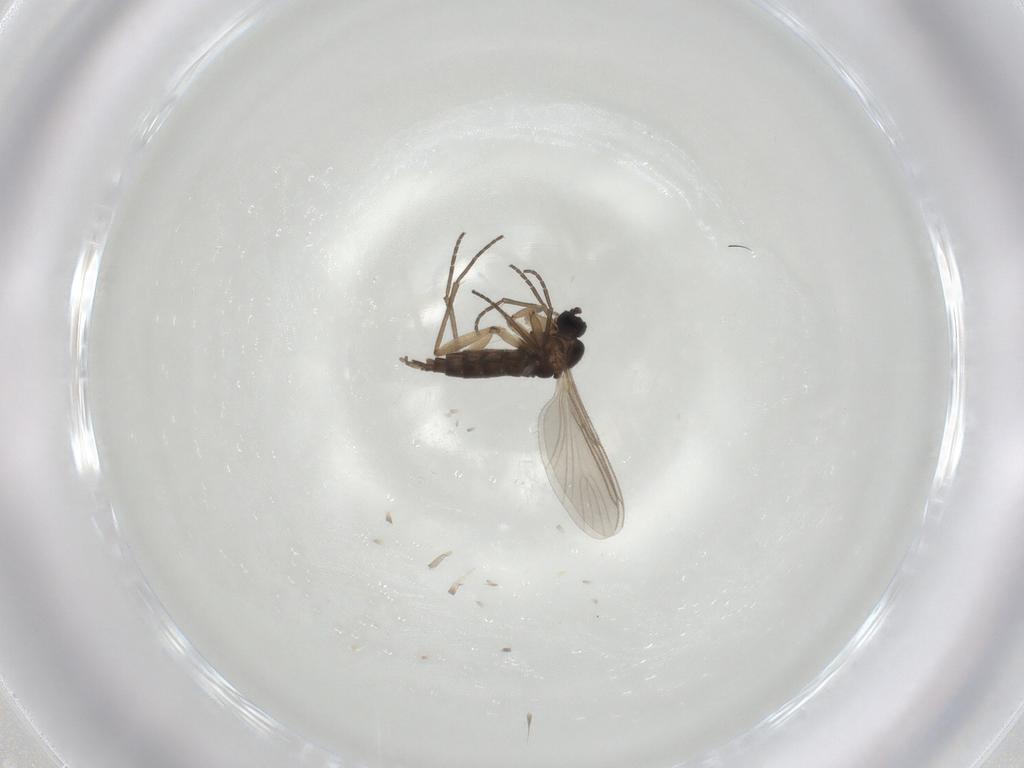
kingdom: Animalia
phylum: Arthropoda
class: Insecta
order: Diptera
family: Sciaridae
